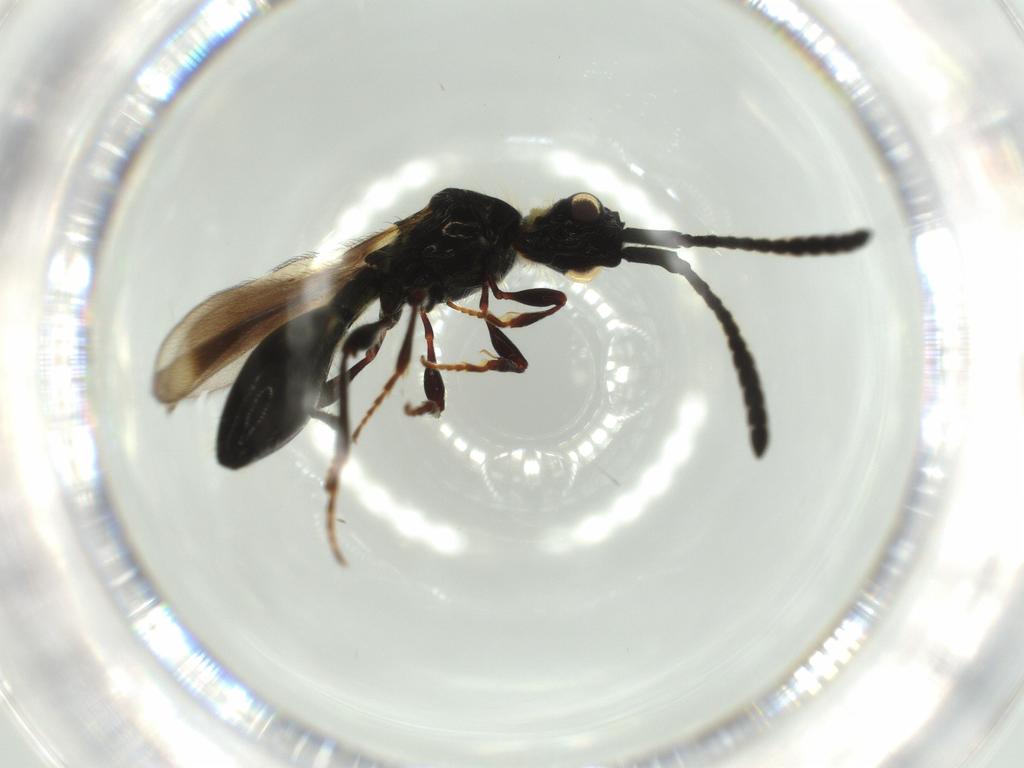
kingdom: Animalia
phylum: Arthropoda
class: Insecta
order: Hymenoptera
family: Diapriidae
